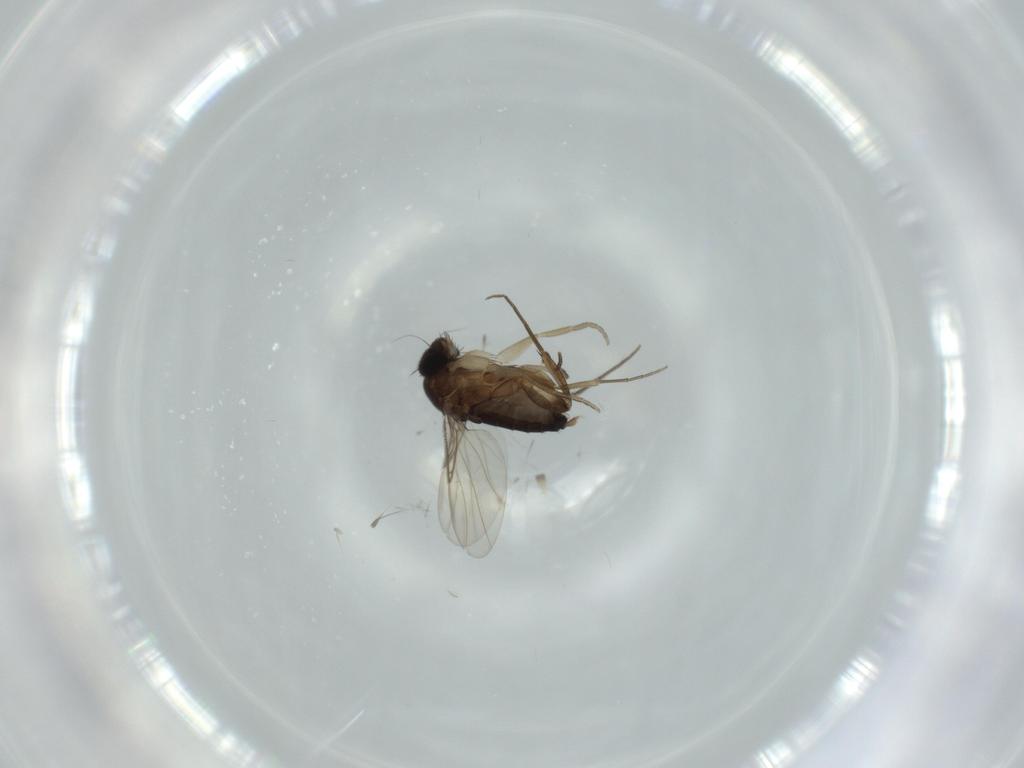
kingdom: Animalia
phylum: Arthropoda
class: Insecta
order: Diptera
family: Phoridae
